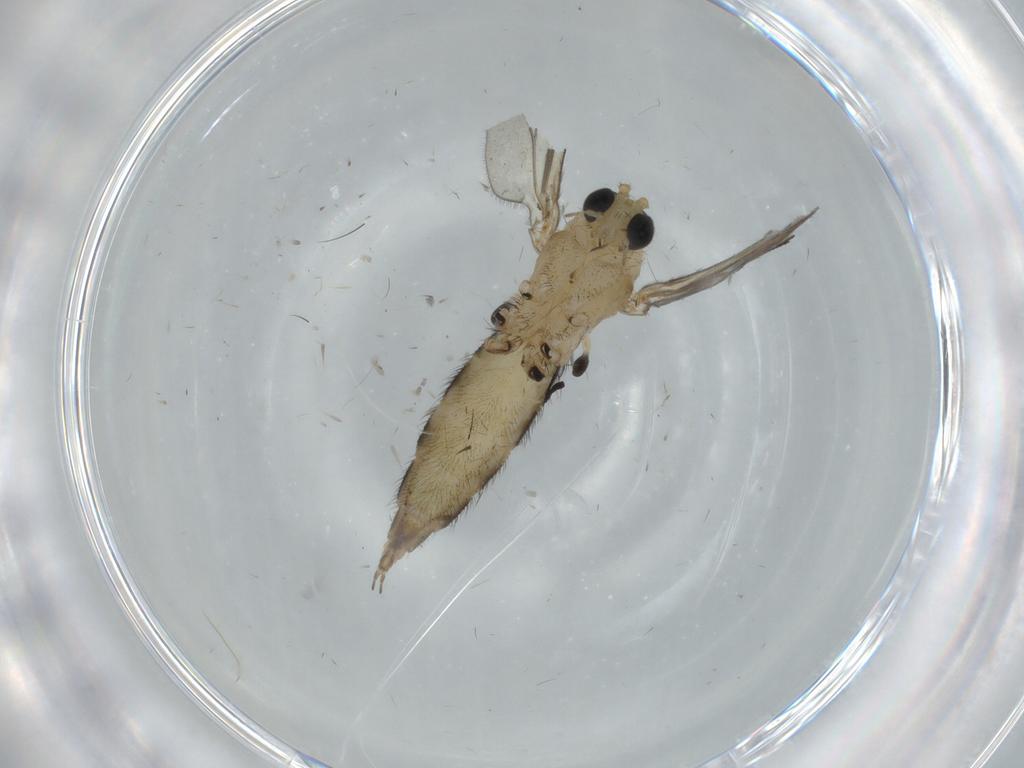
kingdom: Animalia
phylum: Arthropoda
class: Insecta
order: Diptera
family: Sciaridae
